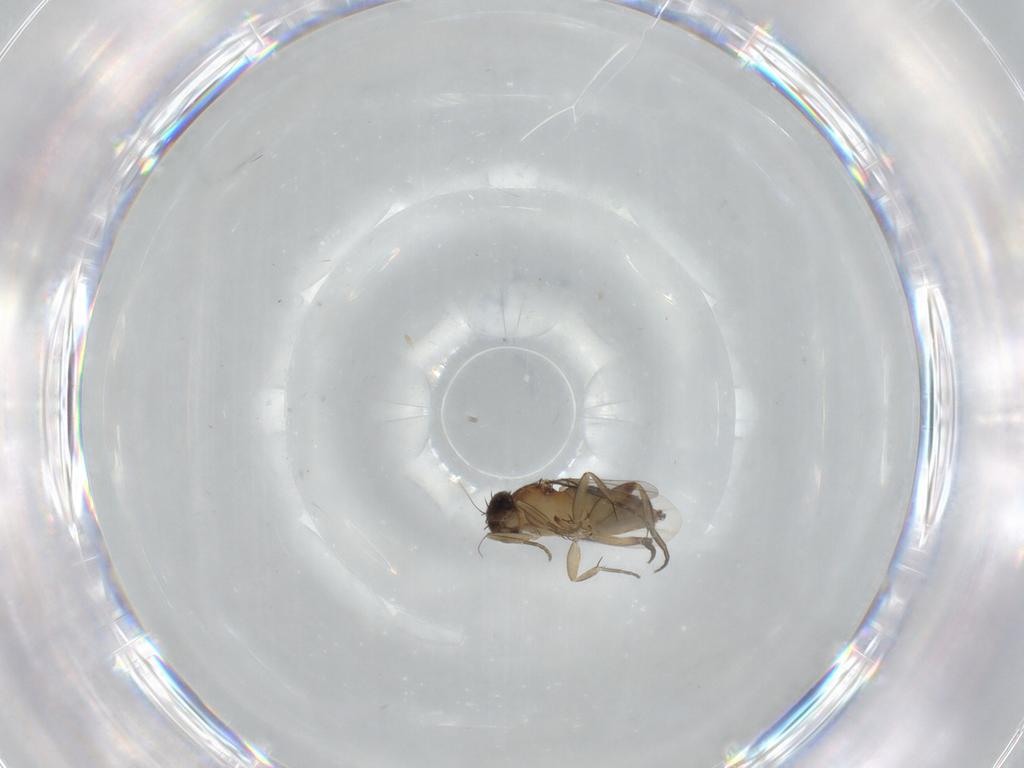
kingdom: Animalia
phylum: Arthropoda
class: Insecta
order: Diptera
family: Phoridae
